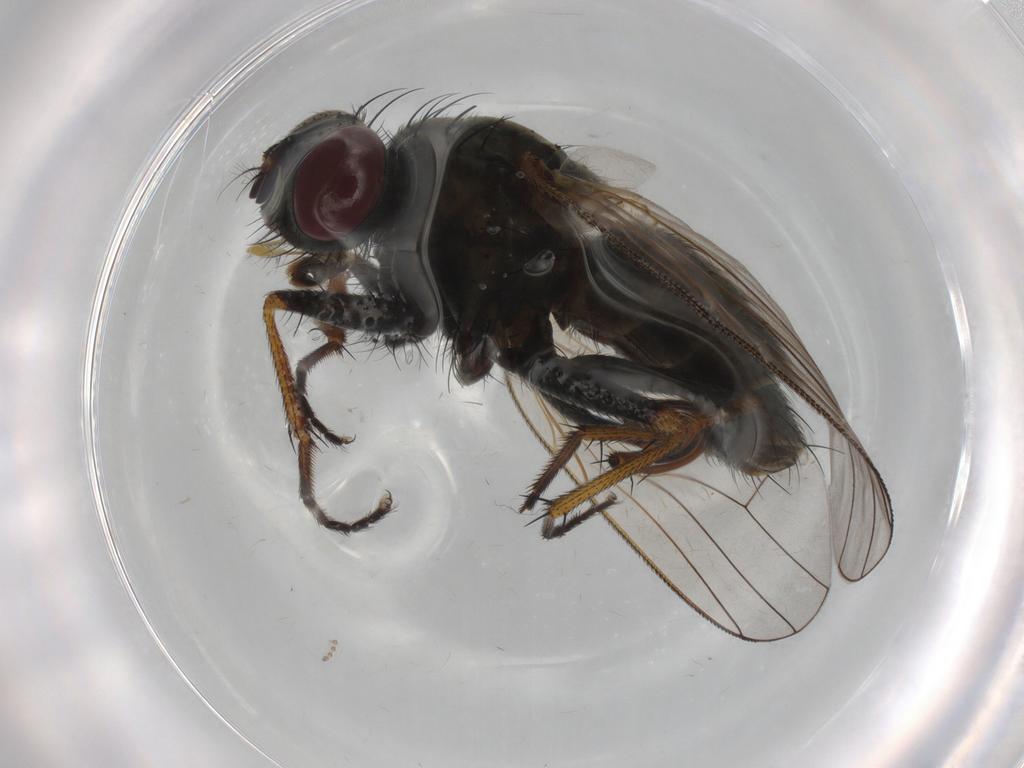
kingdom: Animalia
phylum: Arthropoda
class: Insecta
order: Diptera
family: Muscidae
